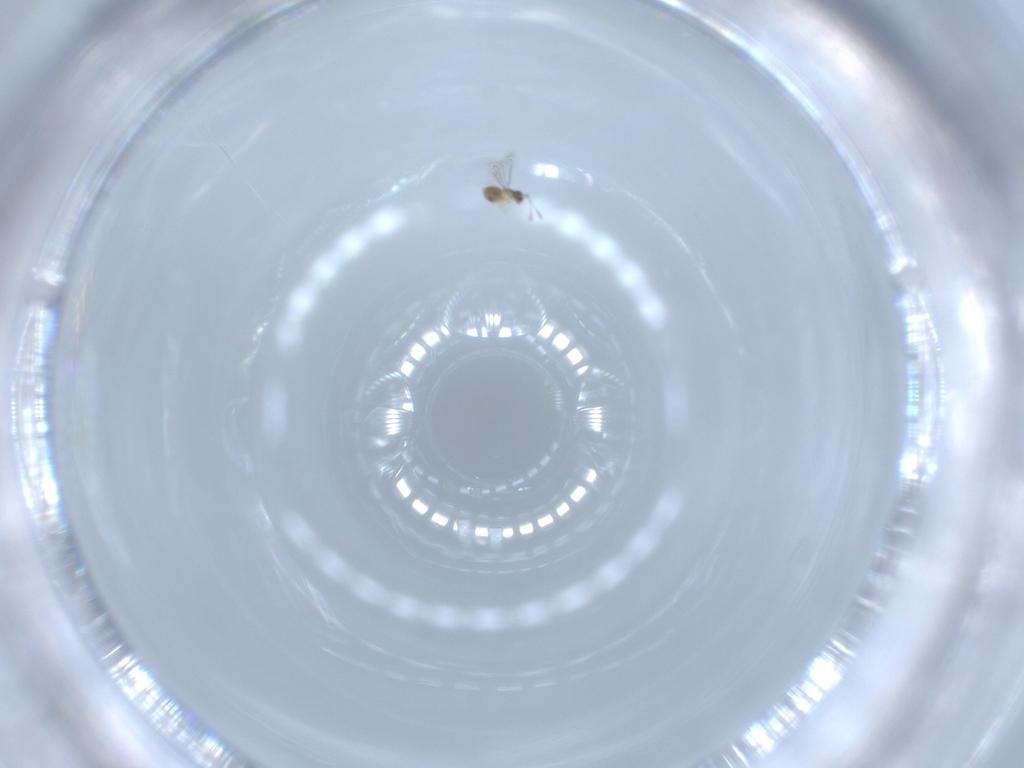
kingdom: Animalia
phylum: Arthropoda
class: Insecta
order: Hymenoptera
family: Mymaridae
